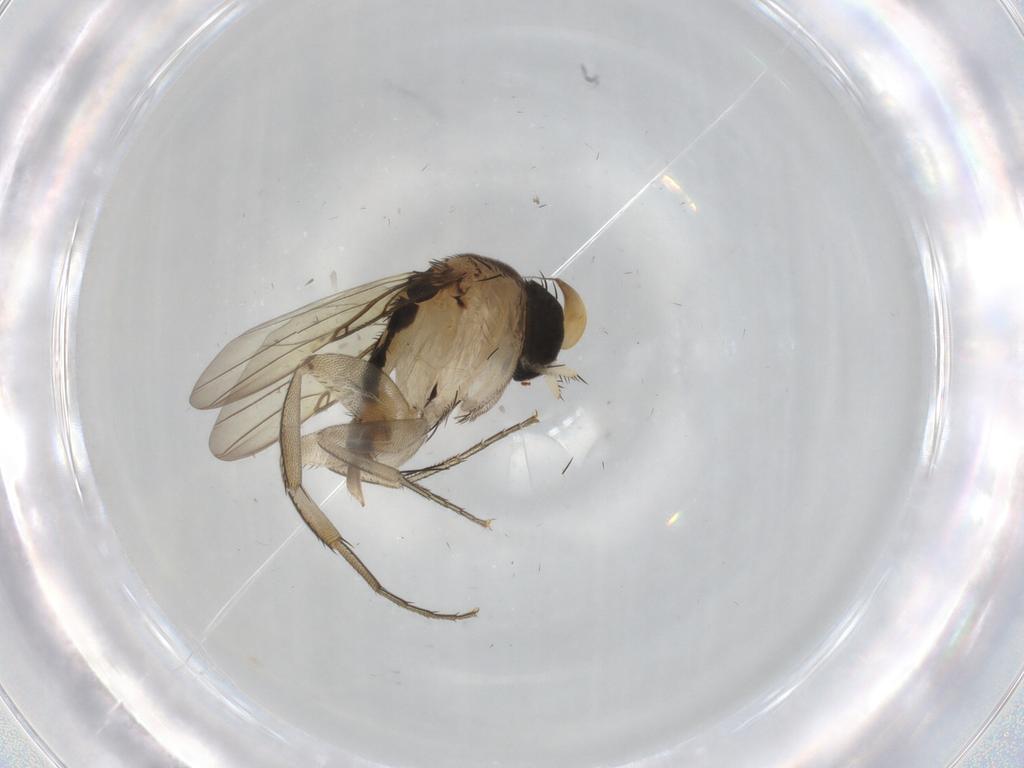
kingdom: Animalia
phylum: Arthropoda
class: Insecta
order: Diptera
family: Phoridae
